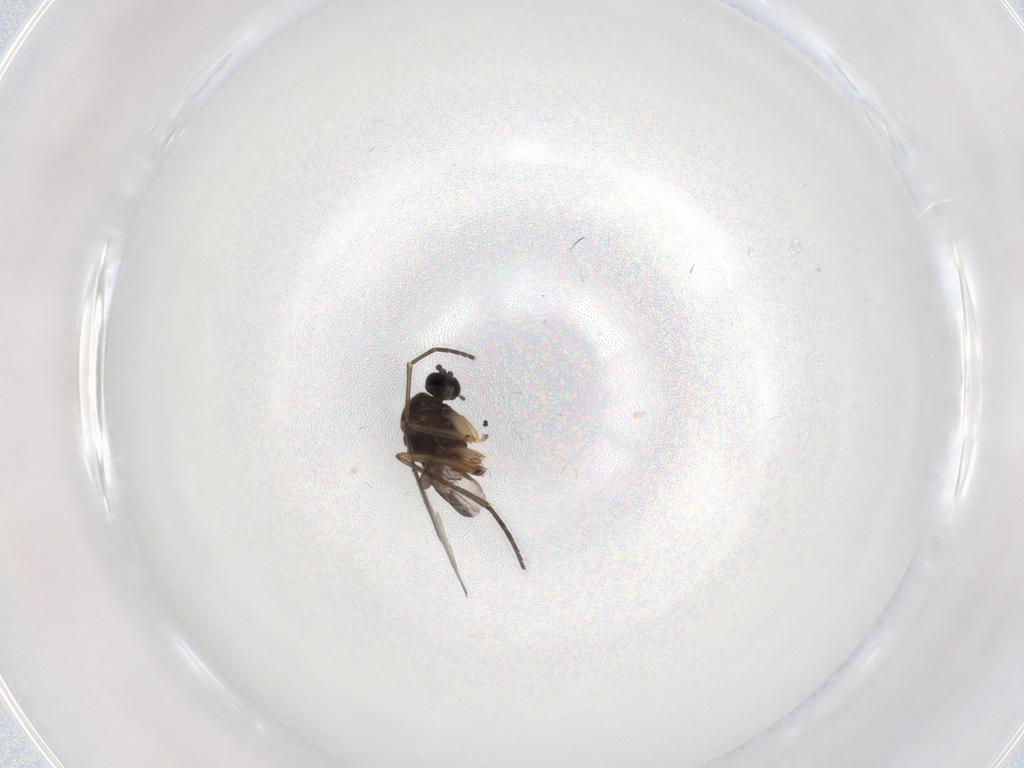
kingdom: Animalia
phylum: Arthropoda
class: Insecta
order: Diptera
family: Sciaridae
